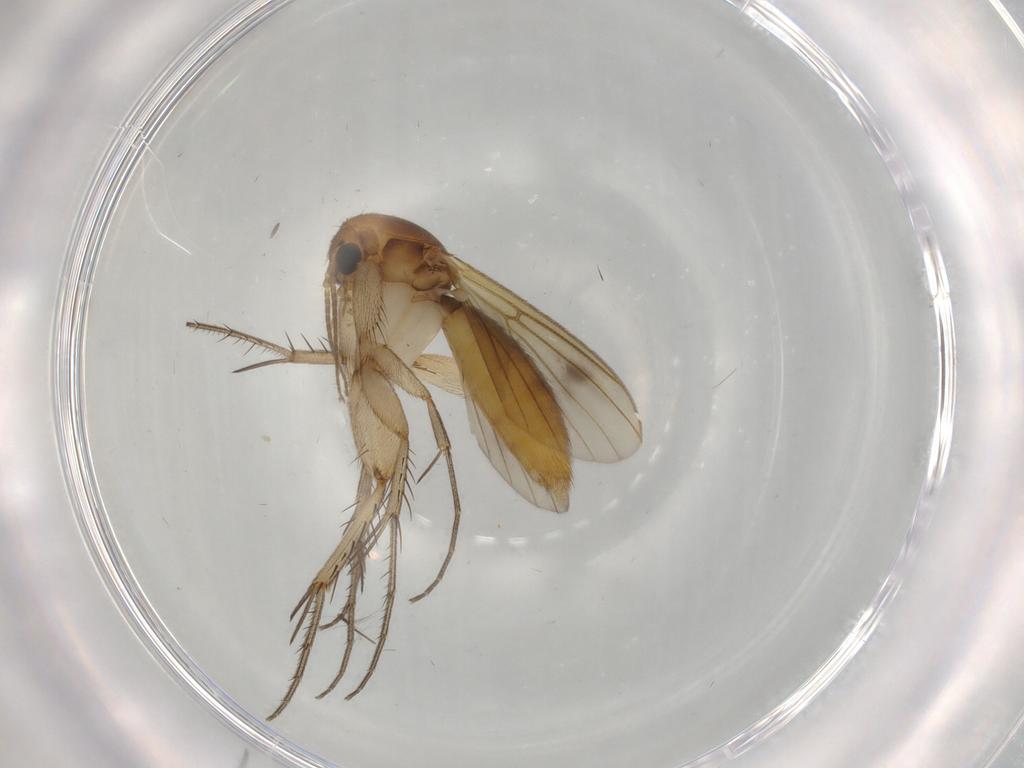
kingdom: Animalia
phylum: Arthropoda
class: Insecta
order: Diptera
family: Mycetophilidae
